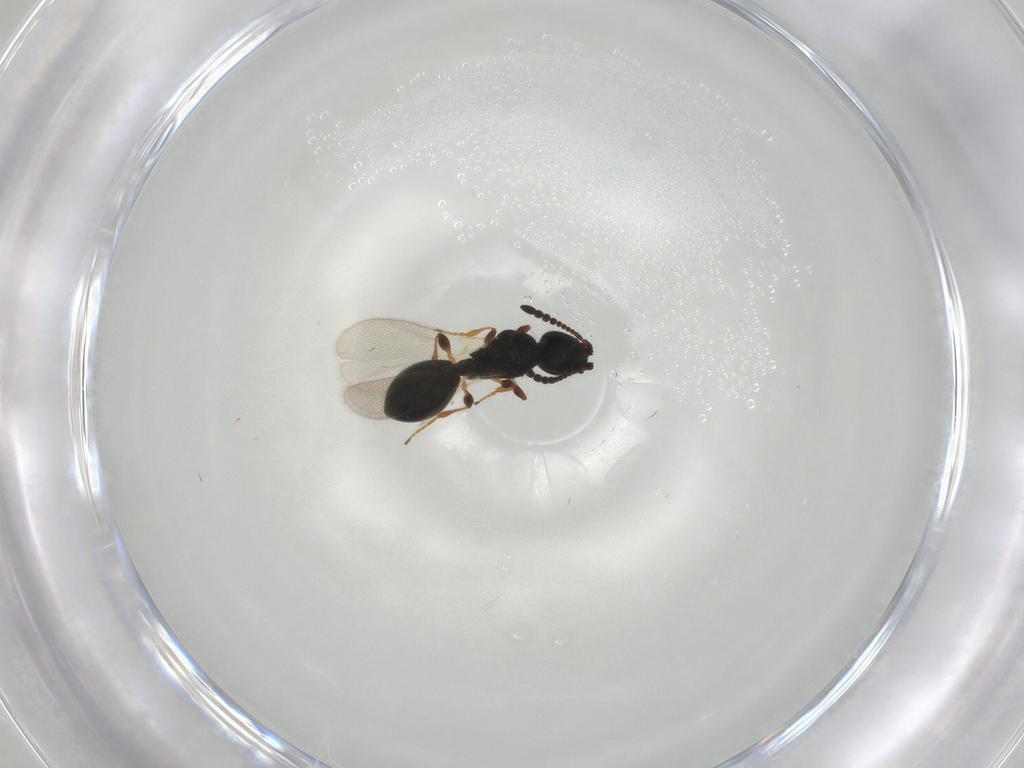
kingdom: Animalia
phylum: Arthropoda
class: Insecta
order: Hymenoptera
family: Diapriidae
